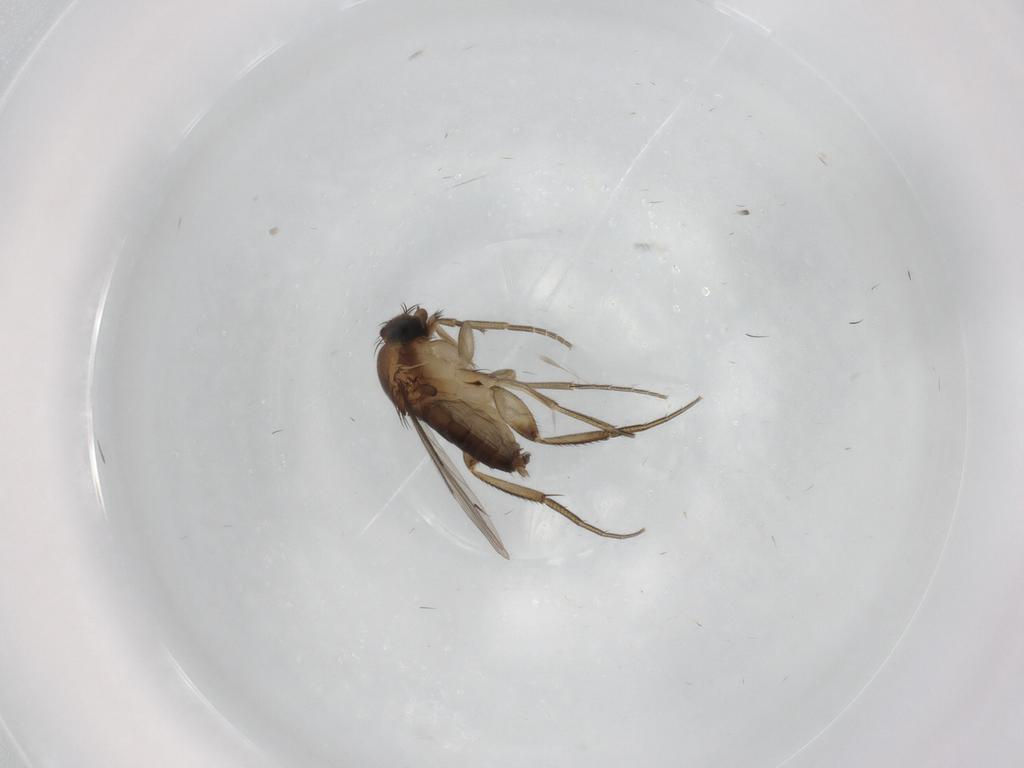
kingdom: Animalia
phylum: Arthropoda
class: Insecta
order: Diptera
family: Phoridae
